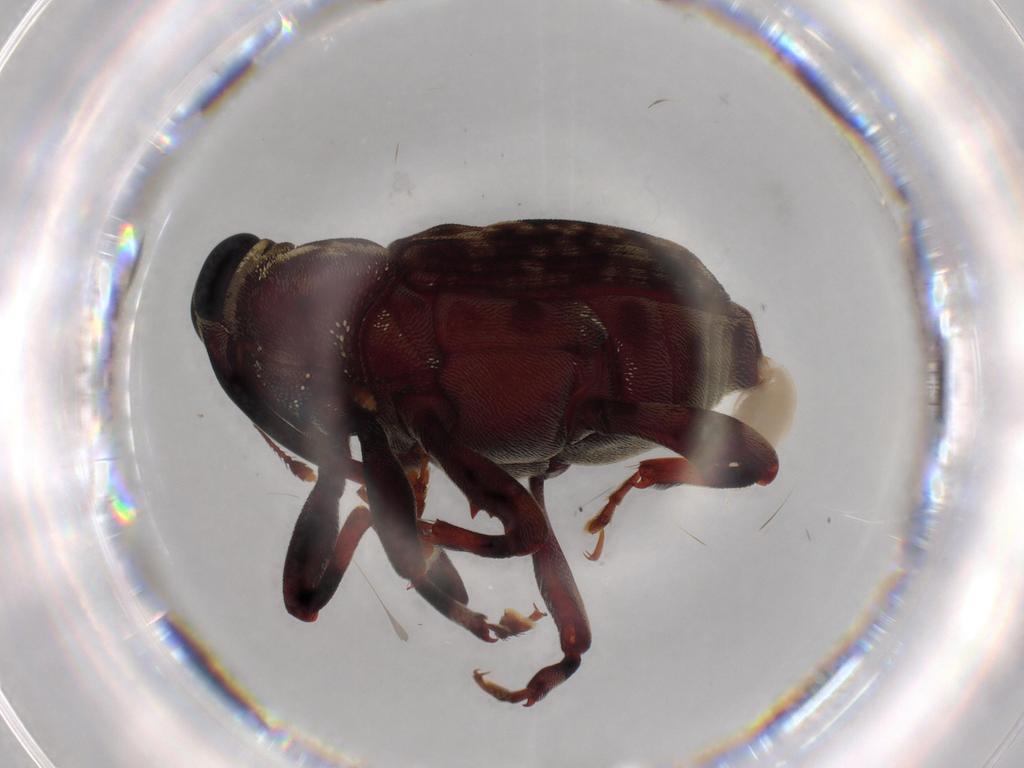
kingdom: Animalia
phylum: Arthropoda
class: Insecta
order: Coleoptera
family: Curculionidae
